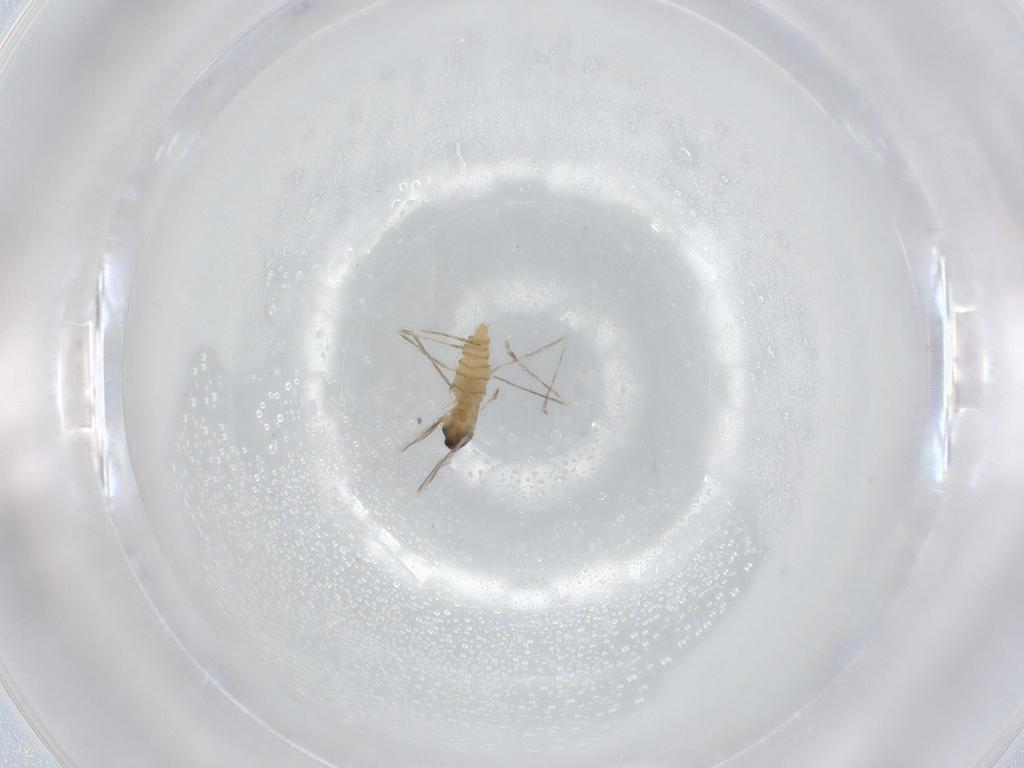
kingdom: Animalia
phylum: Arthropoda
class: Insecta
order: Diptera
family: Cecidomyiidae
